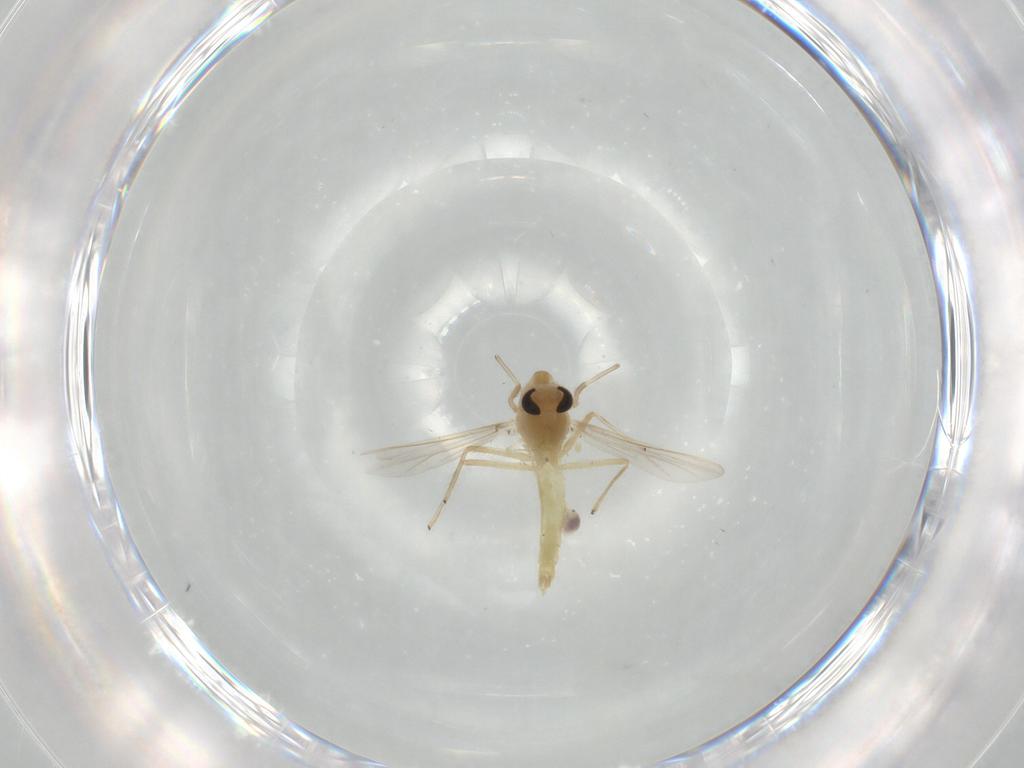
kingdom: Animalia
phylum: Arthropoda
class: Insecta
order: Diptera
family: Chironomidae
